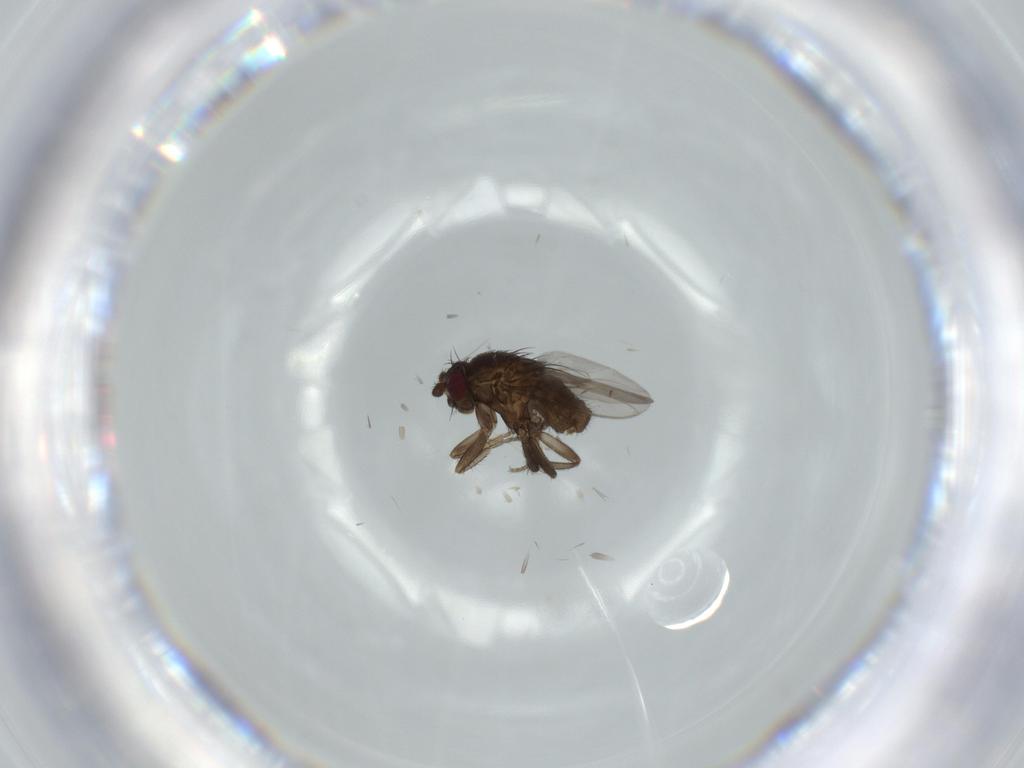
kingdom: Animalia
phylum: Arthropoda
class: Insecta
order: Diptera
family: Sphaeroceridae
